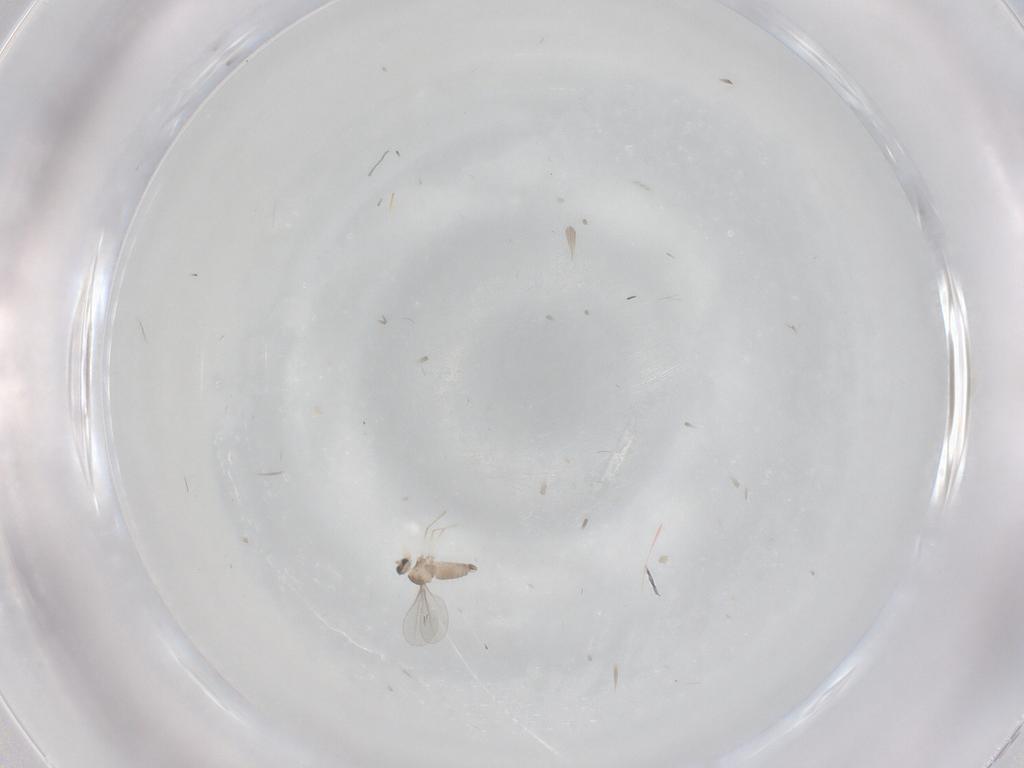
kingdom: Animalia
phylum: Arthropoda
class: Insecta
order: Diptera
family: Cecidomyiidae
